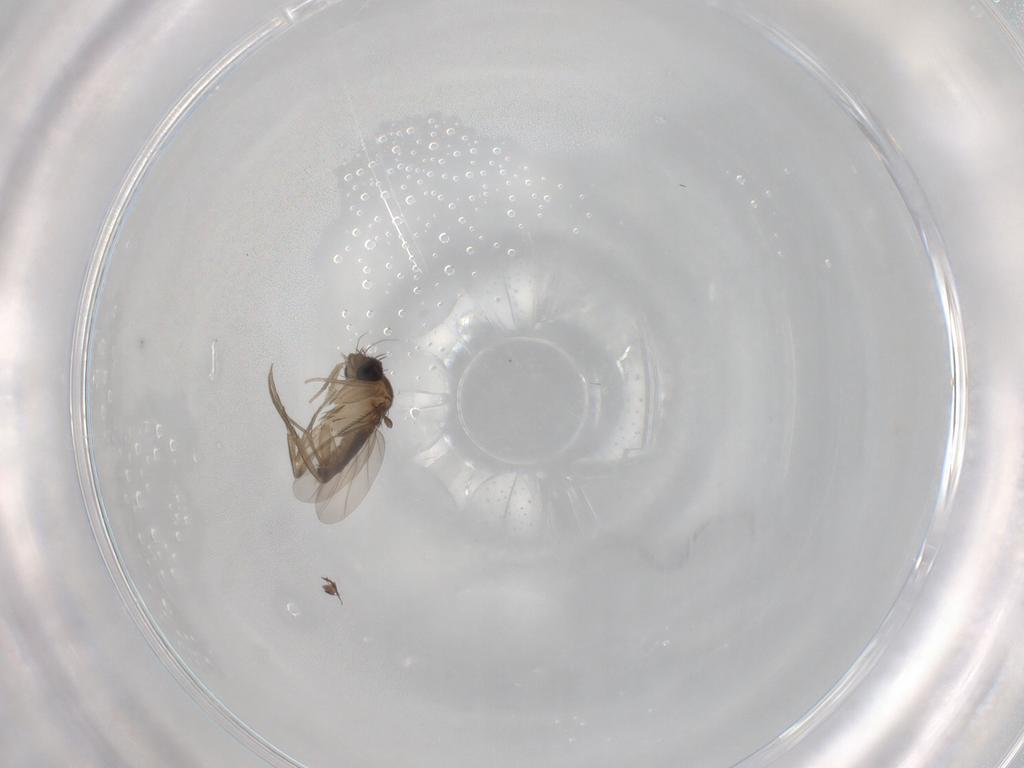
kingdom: Animalia
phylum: Arthropoda
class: Insecta
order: Diptera
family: Phoridae
